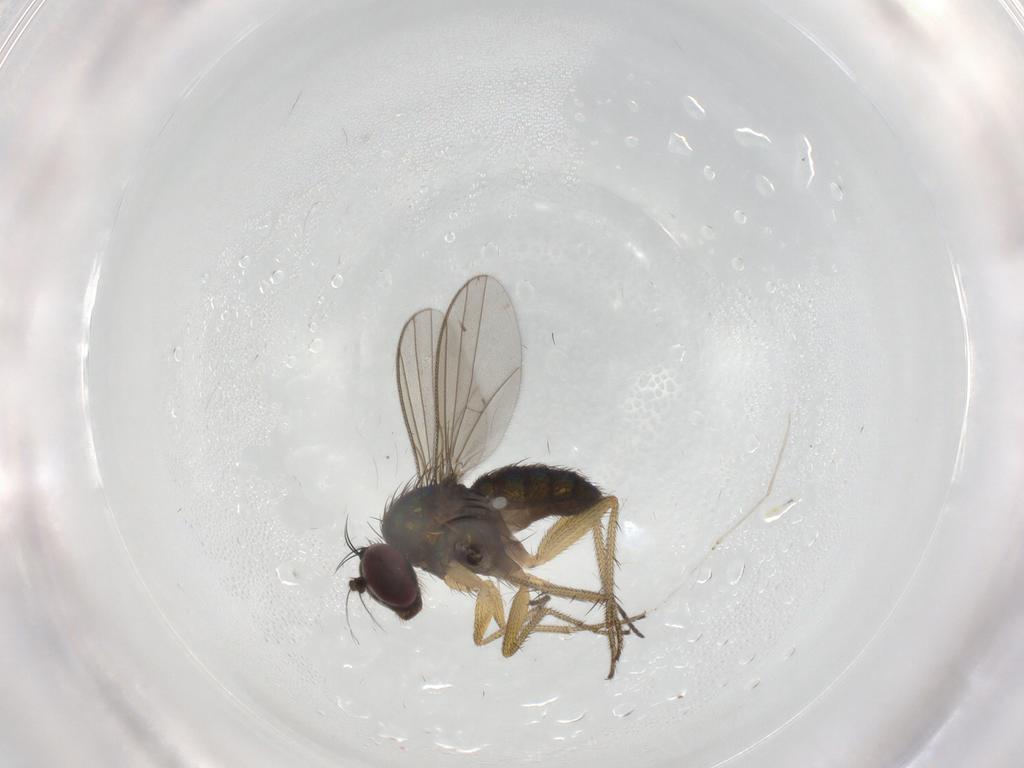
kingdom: Animalia
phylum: Arthropoda
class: Insecta
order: Diptera
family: Cecidomyiidae
